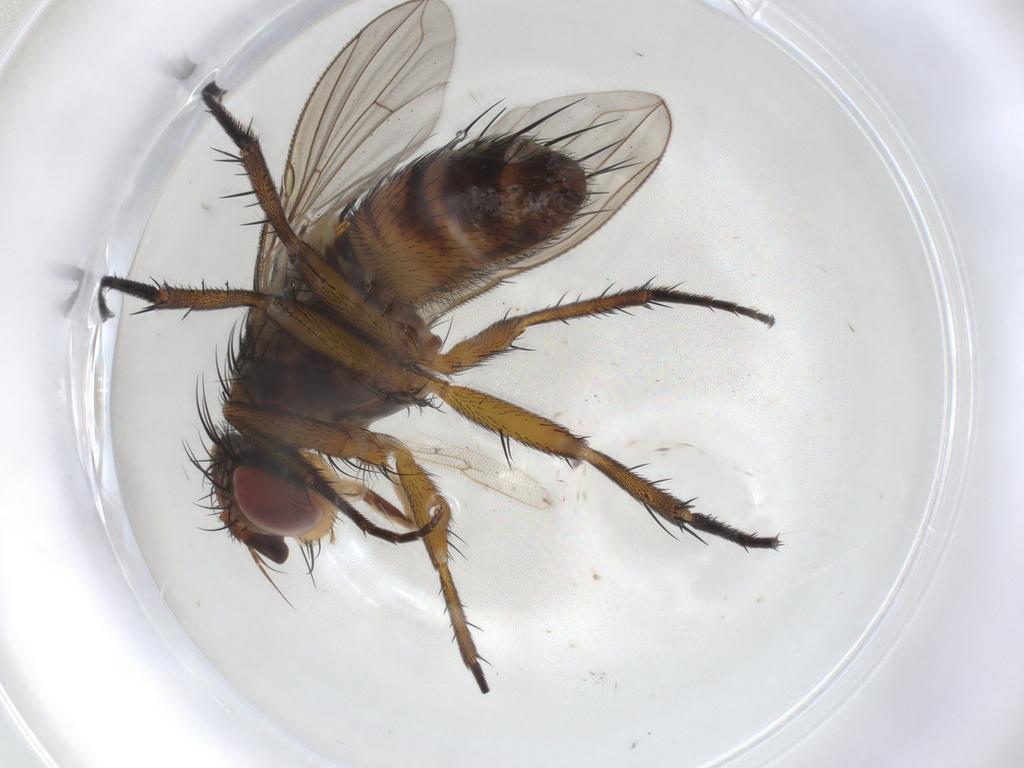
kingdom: Animalia
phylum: Arthropoda
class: Insecta
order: Diptera
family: Tachinidae
